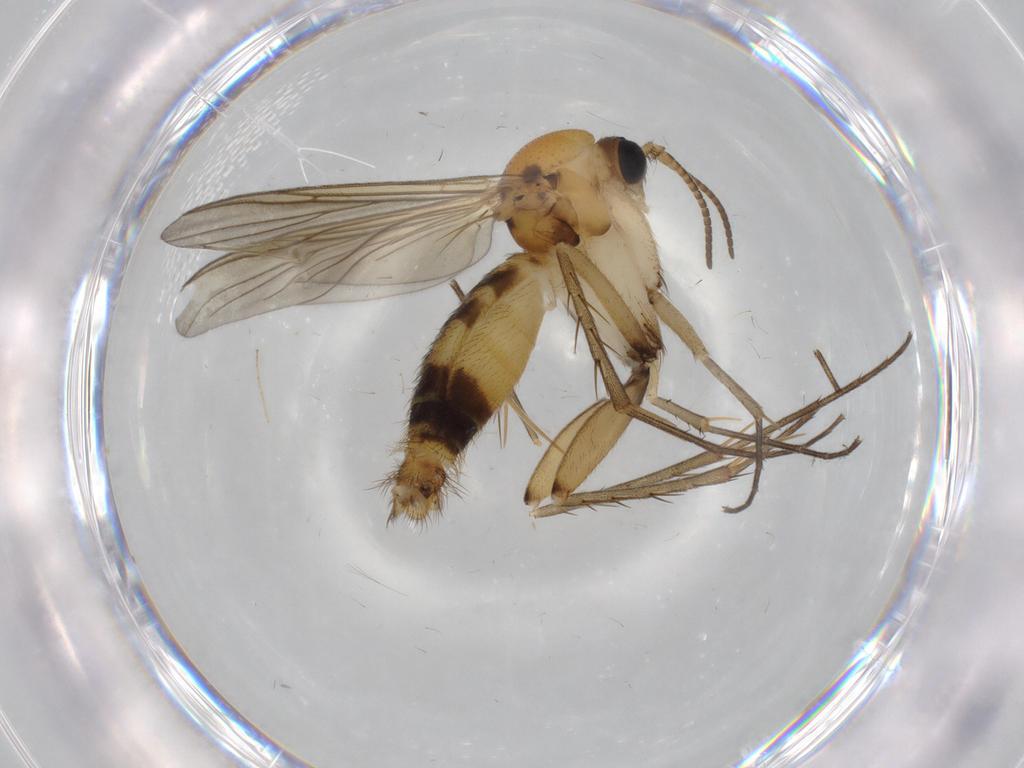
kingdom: Animalia
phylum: Arthropoda
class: Insecta
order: Diptera
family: Mycetophilidae
